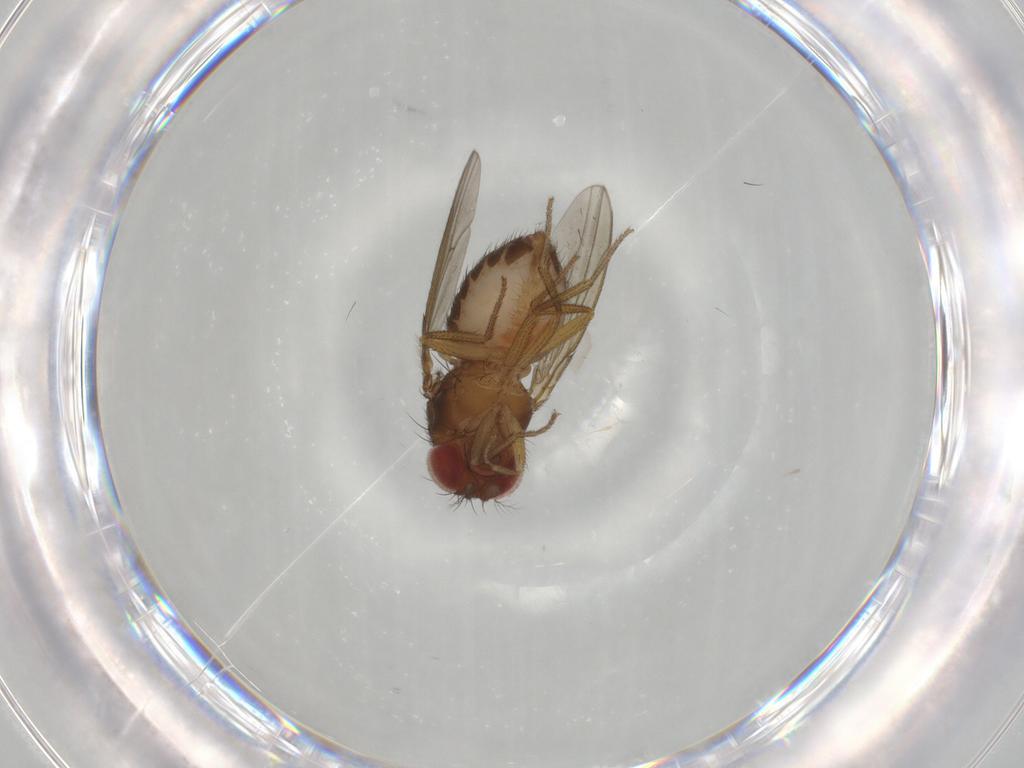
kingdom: Animalia
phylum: Arthropoda
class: Insecta
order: Diptera
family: Drosophilidae
